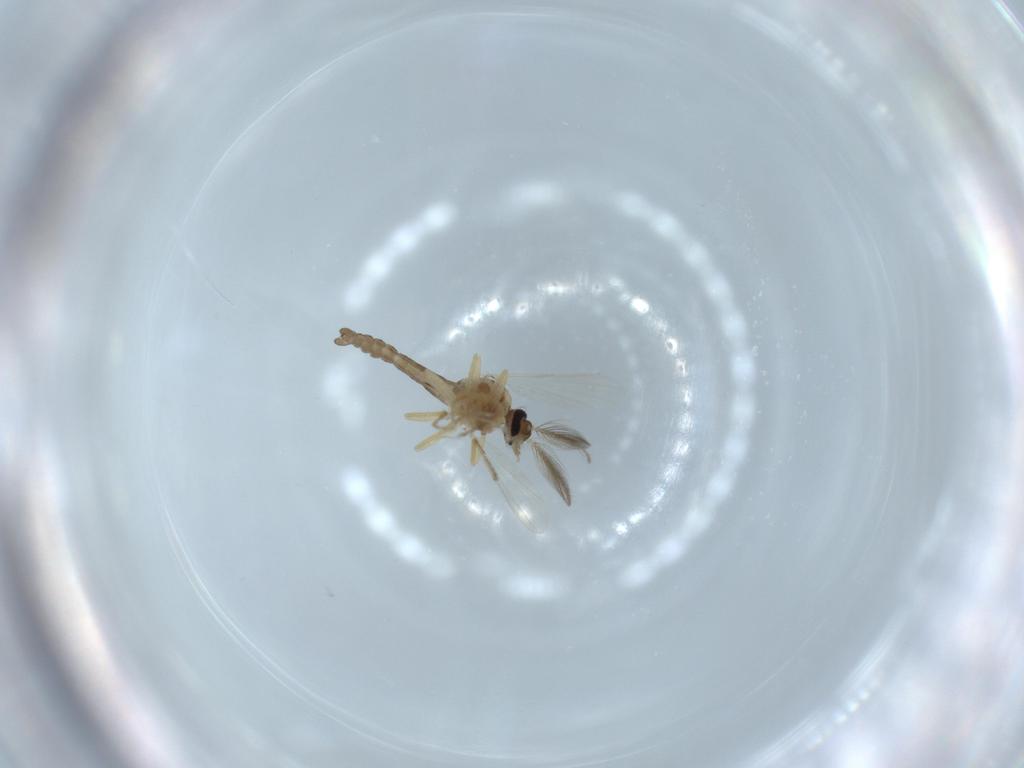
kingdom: Animalia
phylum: Arthropoda
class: Insecta
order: Diptera
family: Ceratopogonidae
